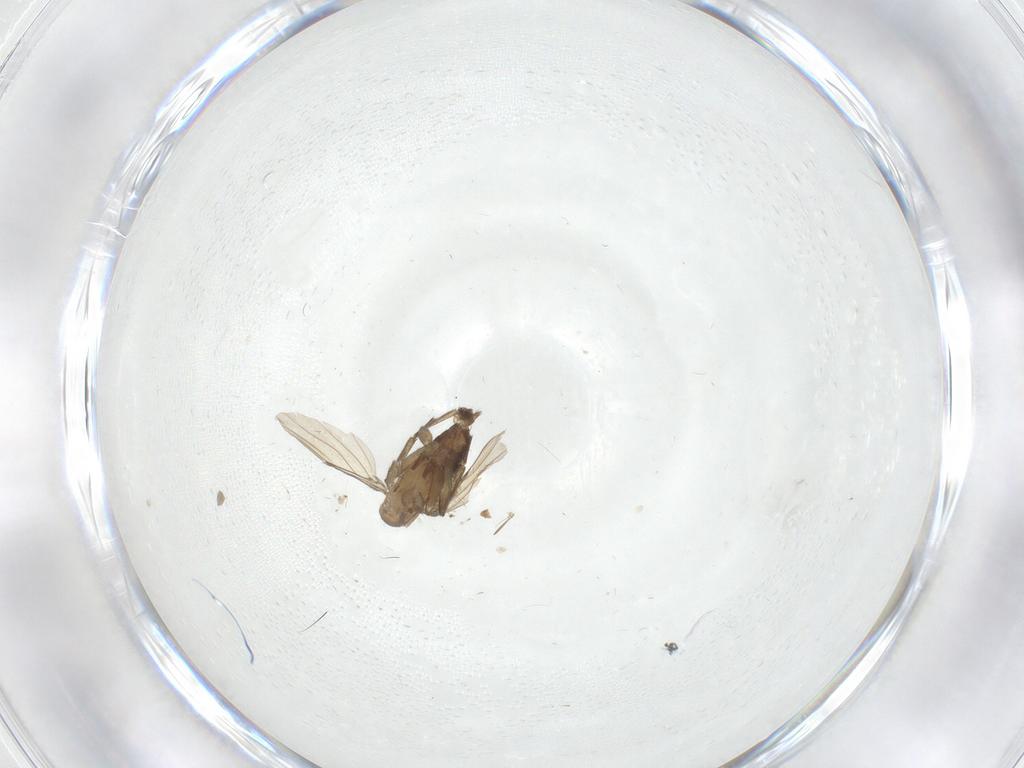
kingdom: Animalia
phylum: Arthropoda
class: Insecta
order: Diptera
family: Phoridae
